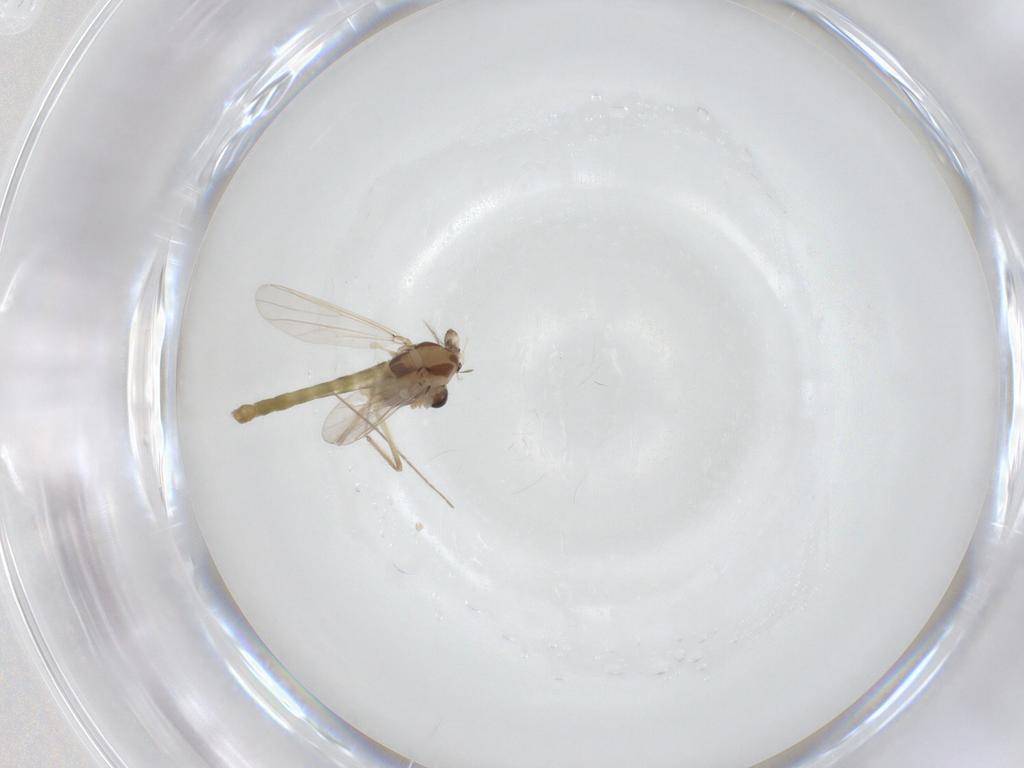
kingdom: Animalia
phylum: Arthropoda
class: Insecta
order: Diptera
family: Chironomidae
